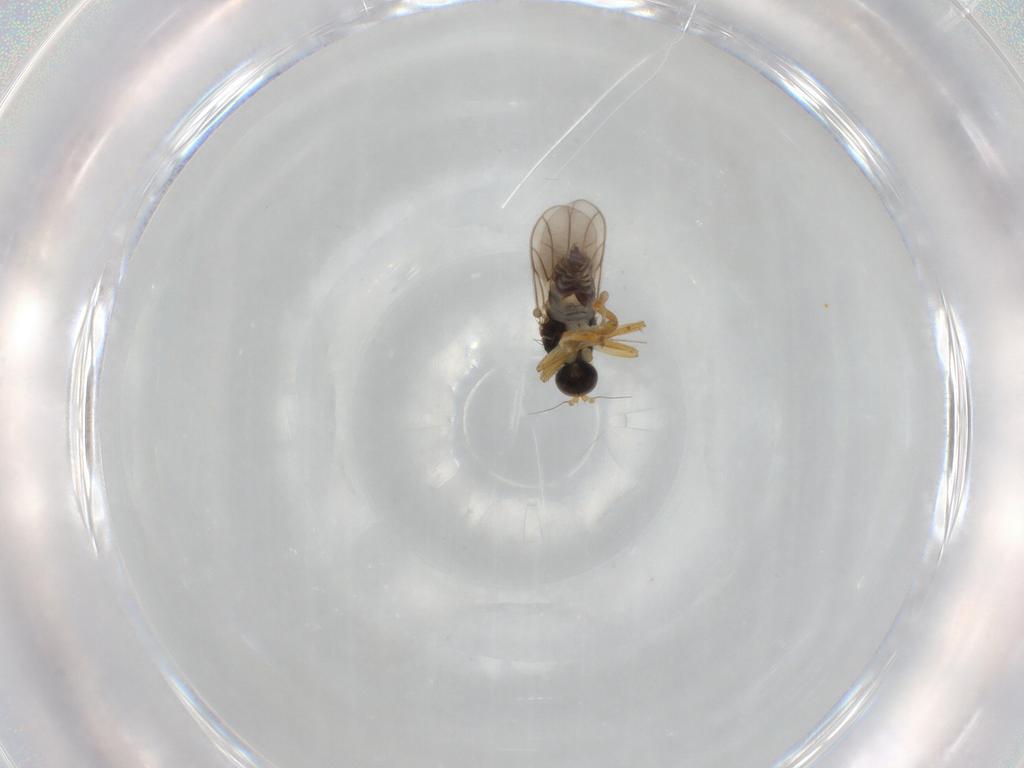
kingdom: Animalia
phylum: Arthropoda
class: Insecta
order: Diptera
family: Hybotidae
